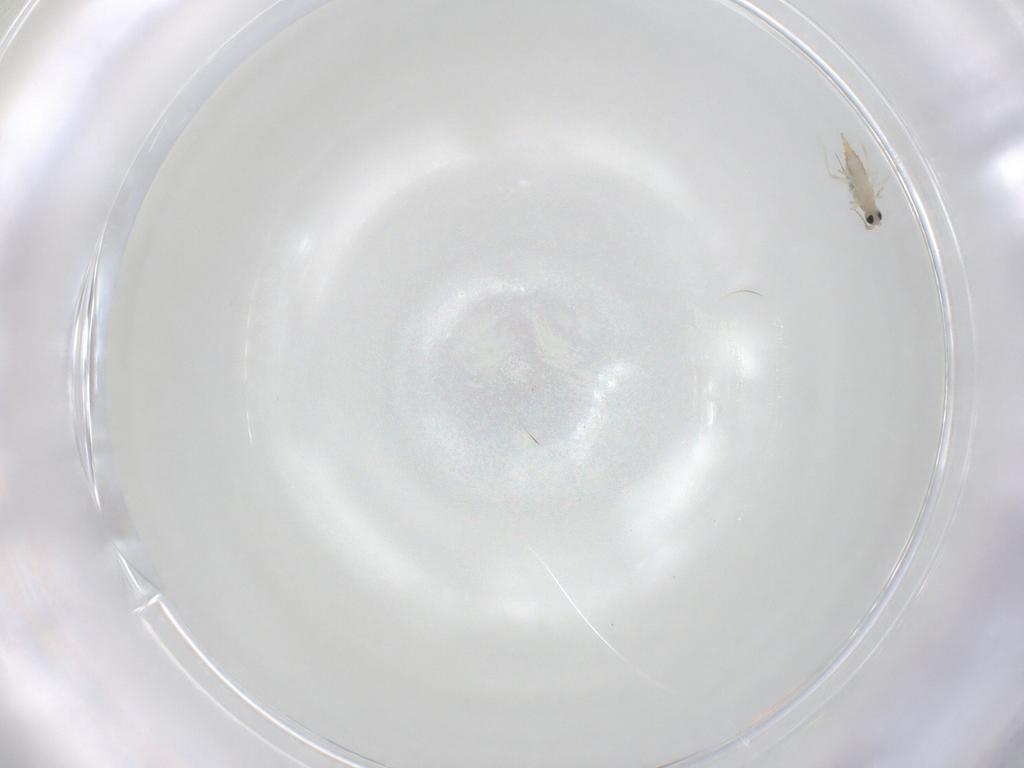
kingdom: Animalia
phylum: Arthropoda
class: Insecta
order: Diptera
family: Cecidomyiidae
